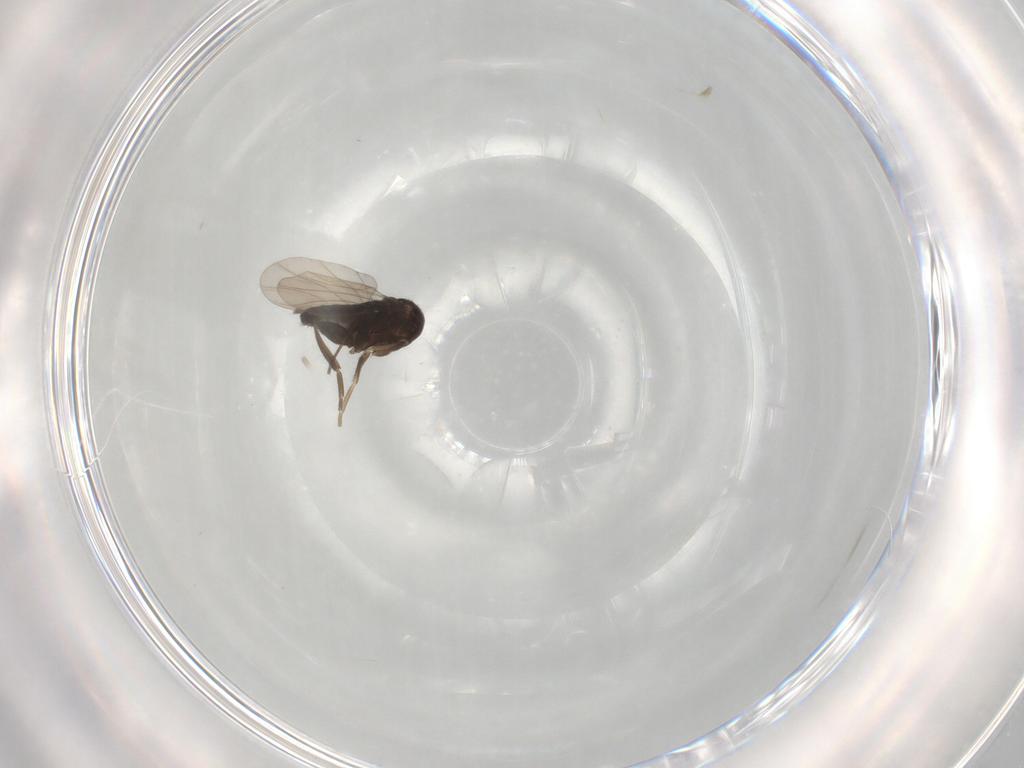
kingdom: Animalia
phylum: Arthropoda
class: Insecta
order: Diptera
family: Phoridae
